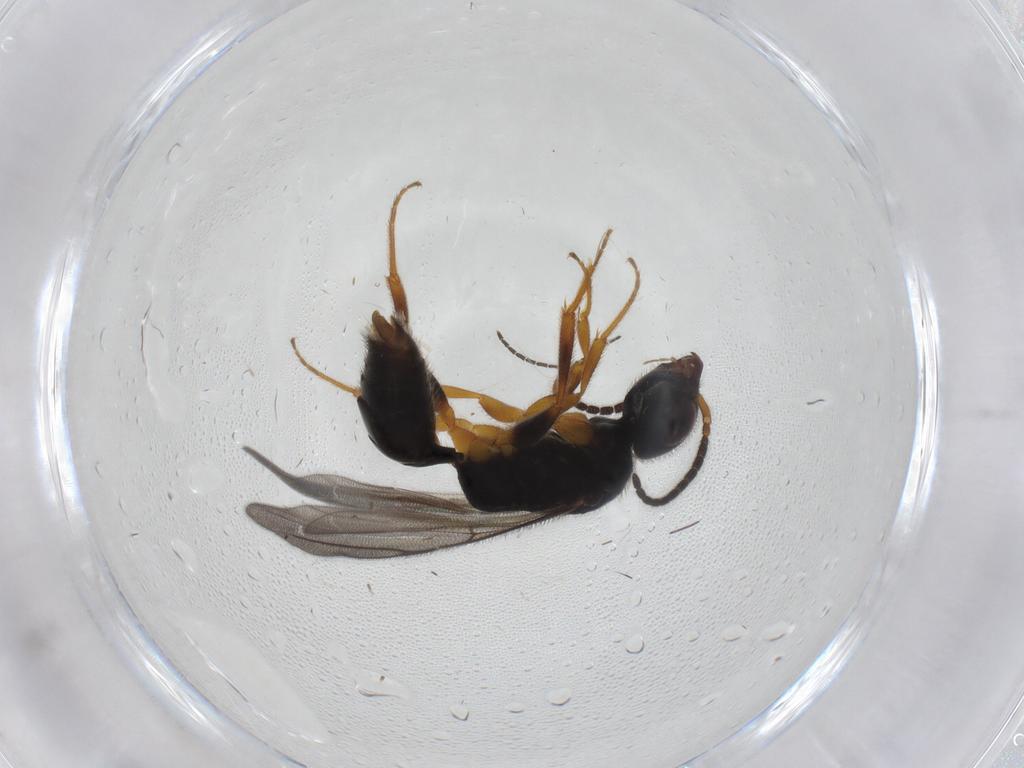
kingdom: Animalia
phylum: Arthropoda
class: Insecta
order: Hymenoptera
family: Bethylidae
